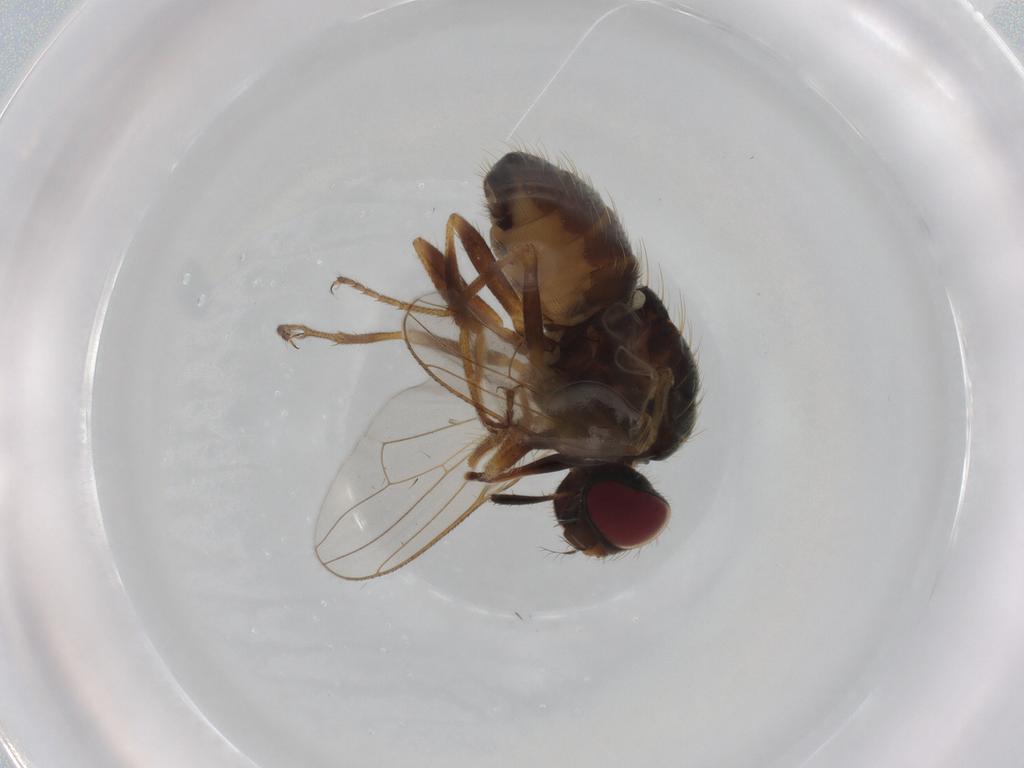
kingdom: Animalia
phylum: Arthropoda
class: Insecta
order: Diptera
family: Muscidae
